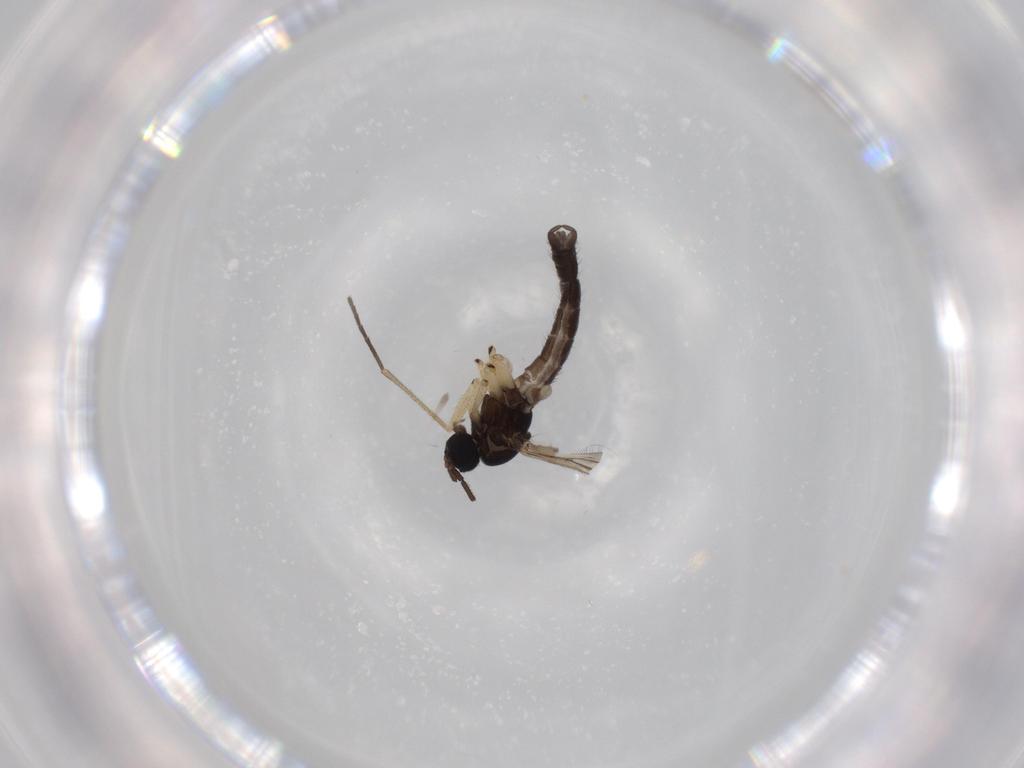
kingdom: Animalia
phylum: Arthropoda
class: Insecta
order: Diptera
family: Sciaridae
